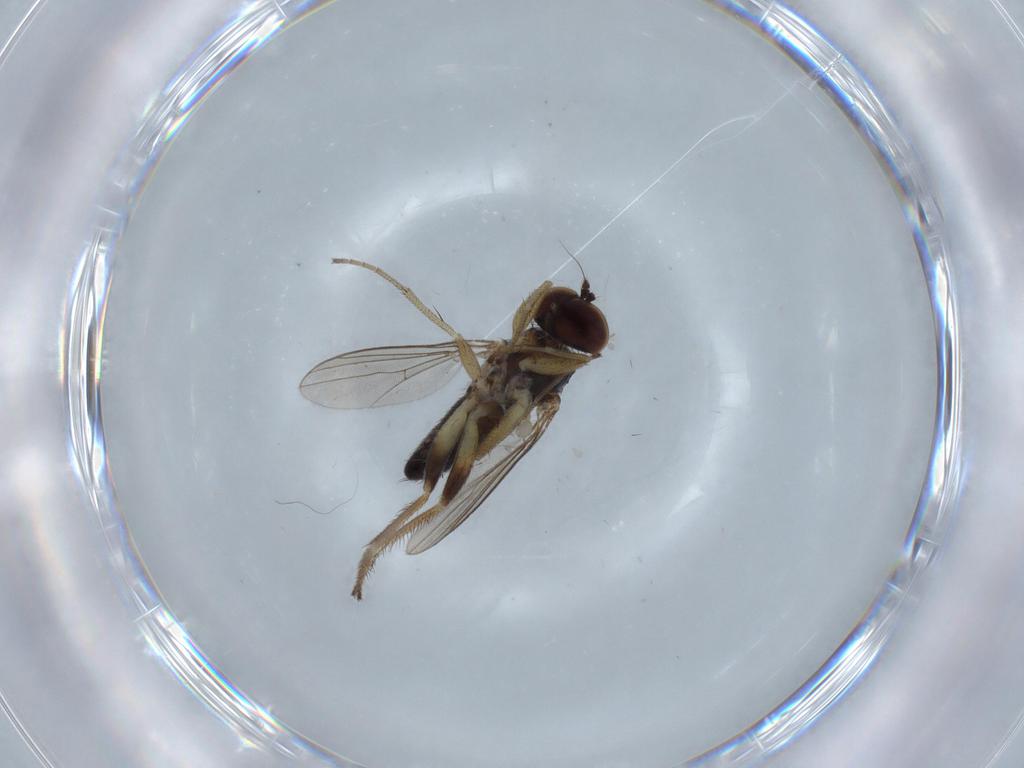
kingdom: Animalia
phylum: Arthropoda
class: Insecta
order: Diptera
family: Ceratopogonidae
